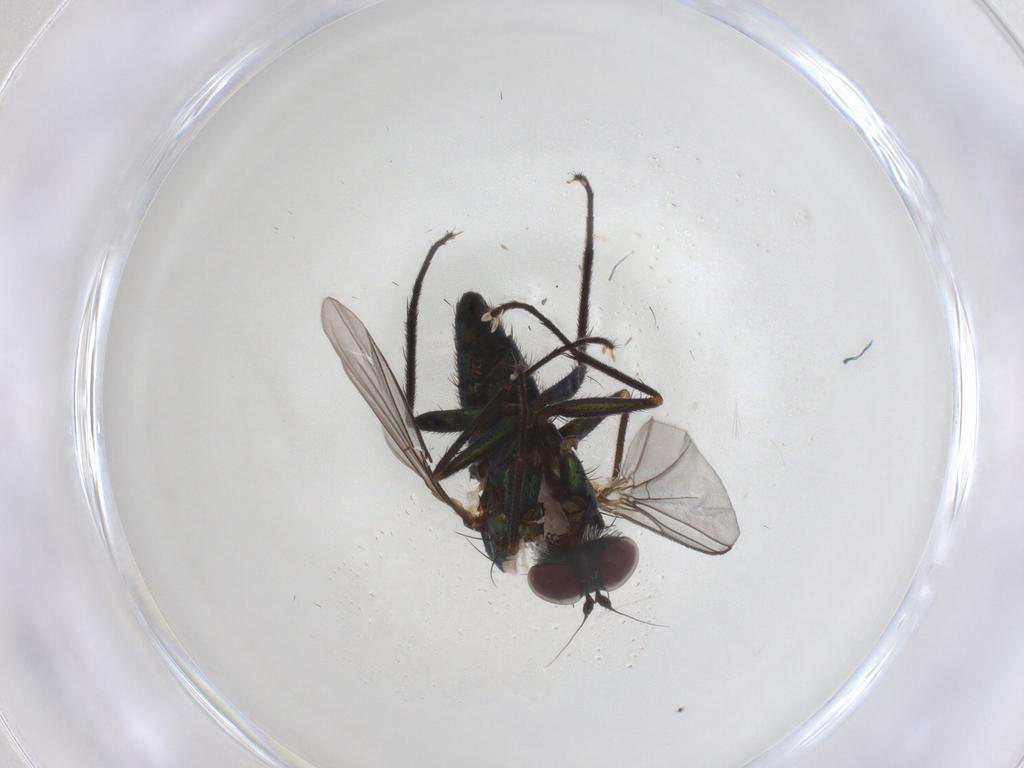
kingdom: Animalia
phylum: Arthropoda
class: Insecta
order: Diptera
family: Dolichopodidae
